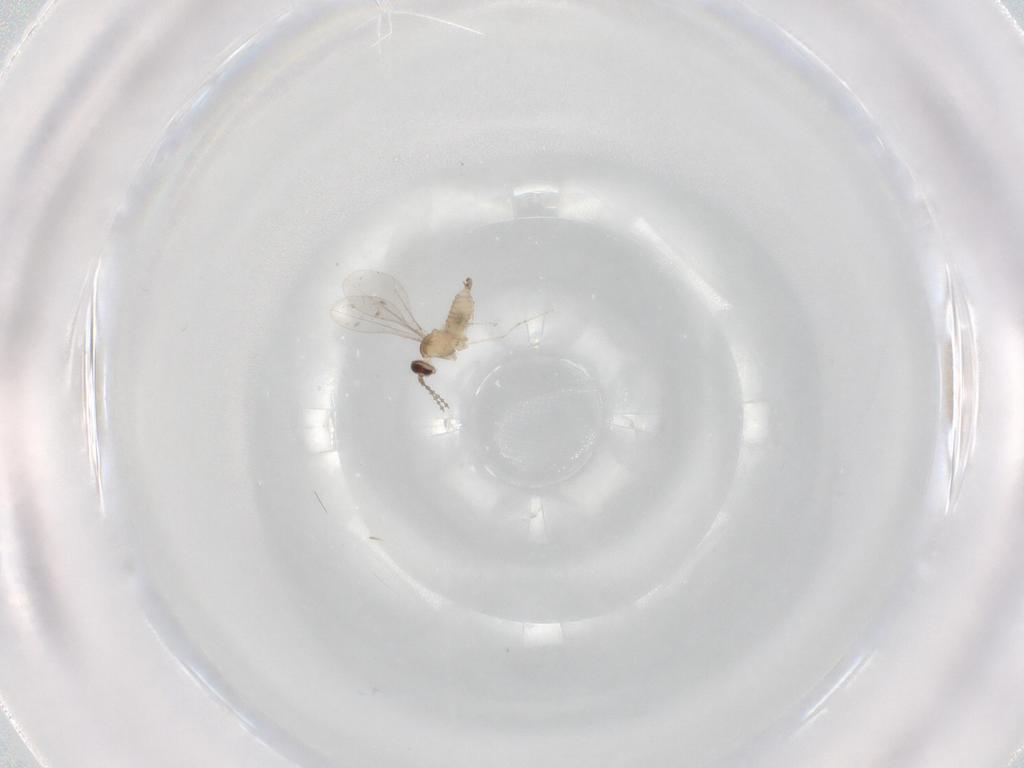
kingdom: Animalia
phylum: Arthropoda
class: Insecta
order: Diptera
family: Cecidomyiidae
